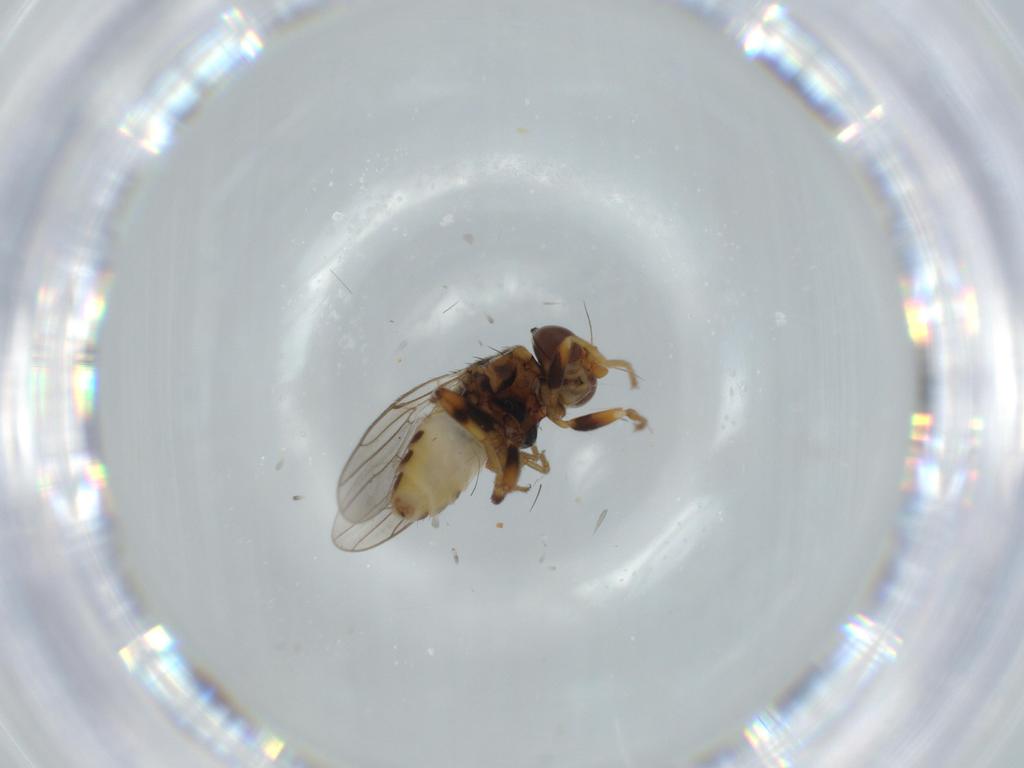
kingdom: Animalia
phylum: Arthropoda
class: Insecta
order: Diptera
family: Chloropidae
